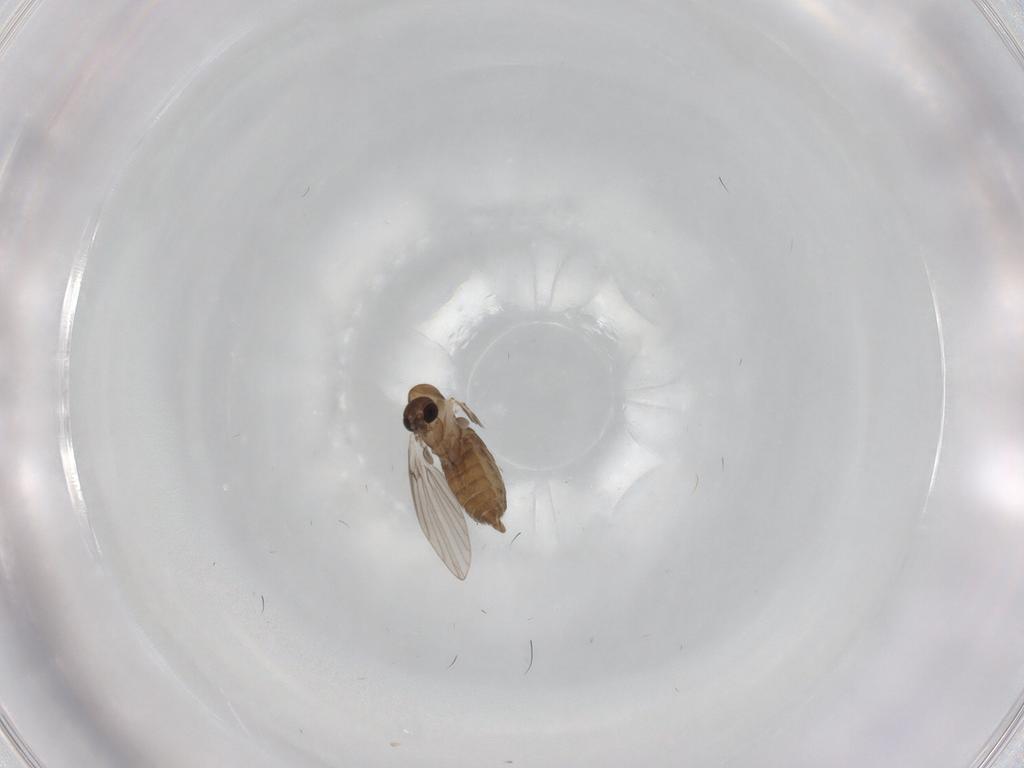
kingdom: Animalia
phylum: Arthropoda
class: Insecta
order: Diptera
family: Psychodidae
